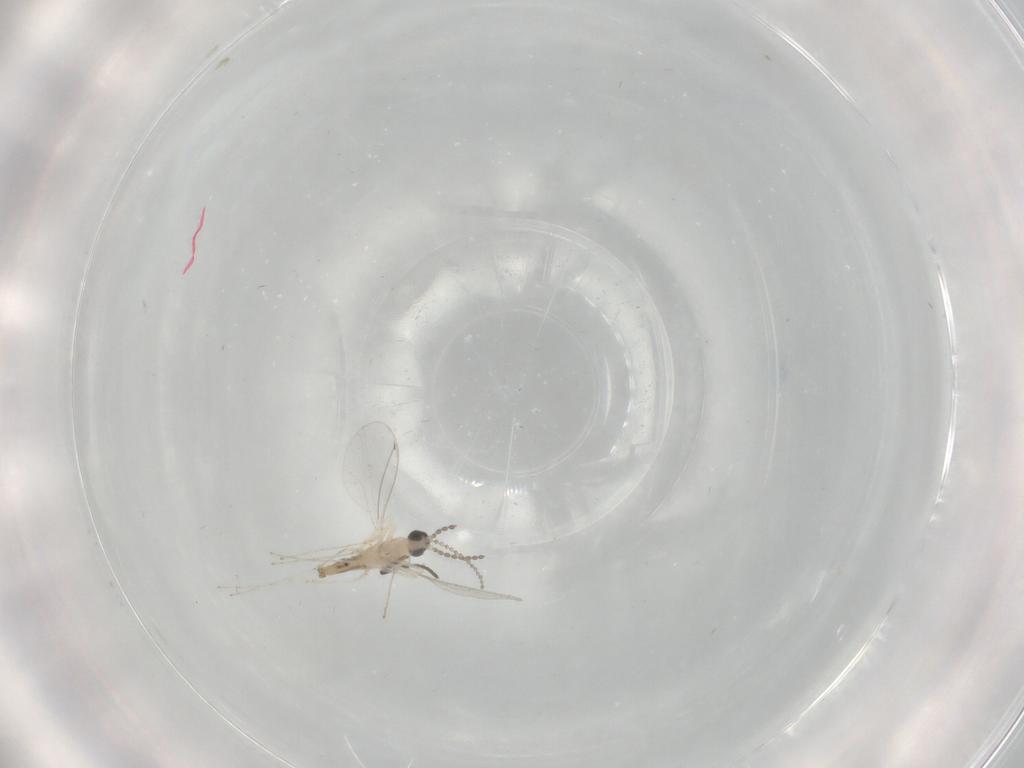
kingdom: Animalia
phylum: Arthropoda
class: Insecta
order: Diptera
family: Cecidomyiidae
